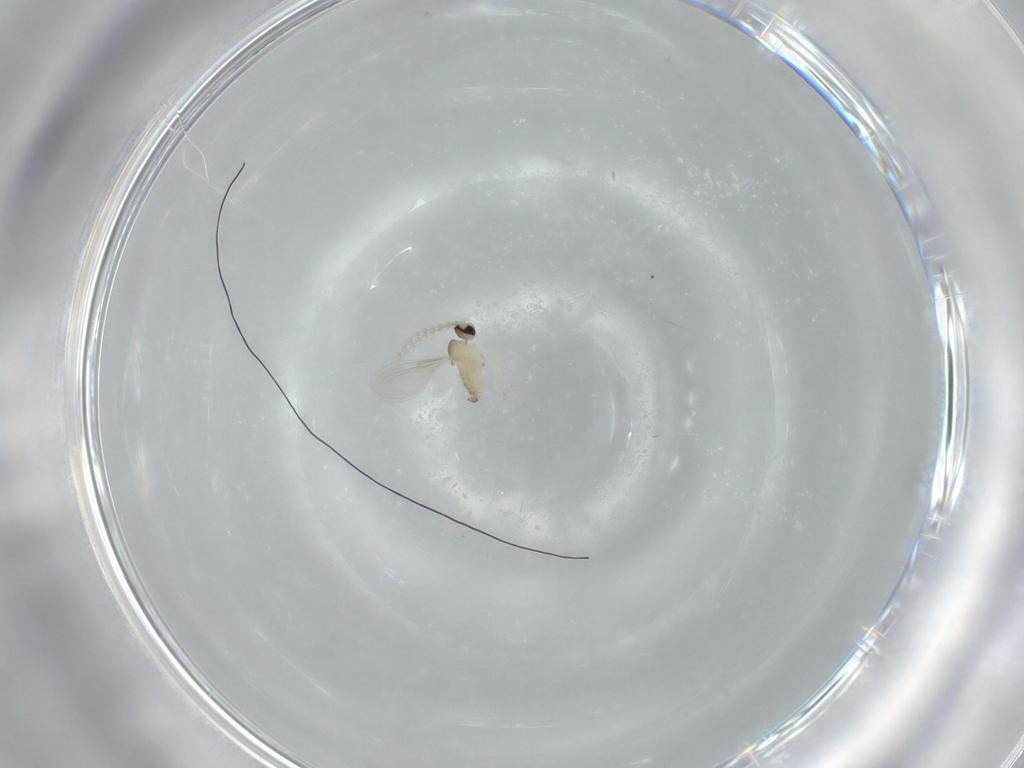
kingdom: Animalia
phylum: Arthropoda
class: Insecta
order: Diptera
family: Cecidomyiidae
